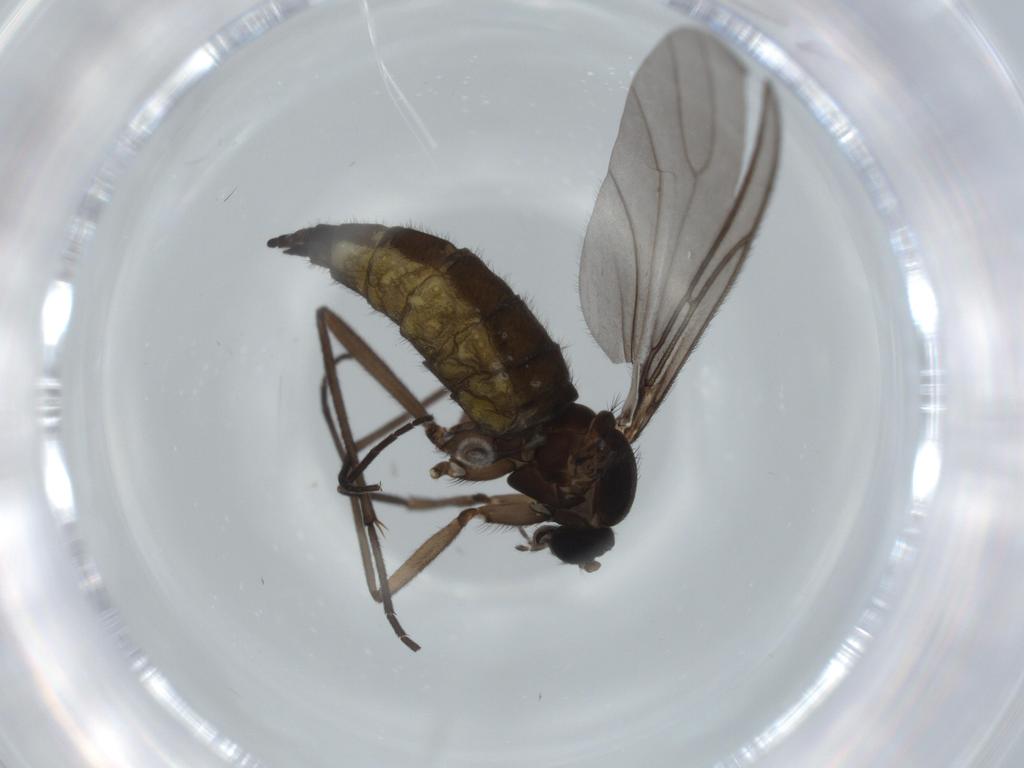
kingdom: Animalia
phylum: Arthropoda
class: Insecta
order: Diptera
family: Sciaridae
